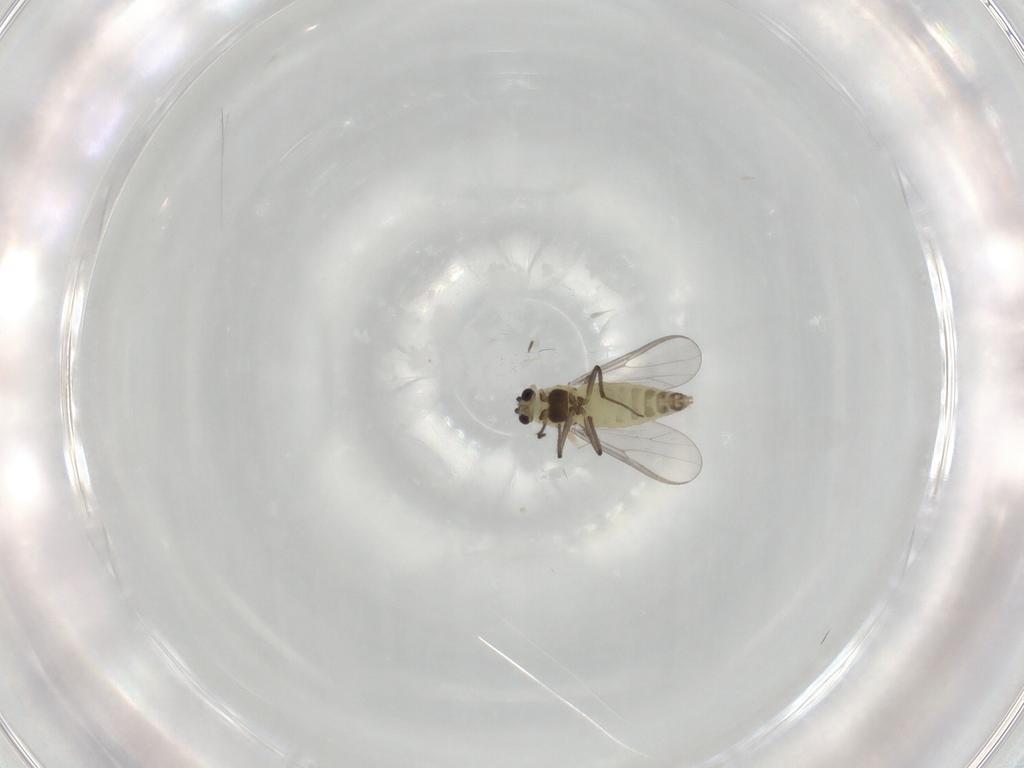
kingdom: Animalia
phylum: Arthropoda
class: Insecta
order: Diptera
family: Chironomidae
